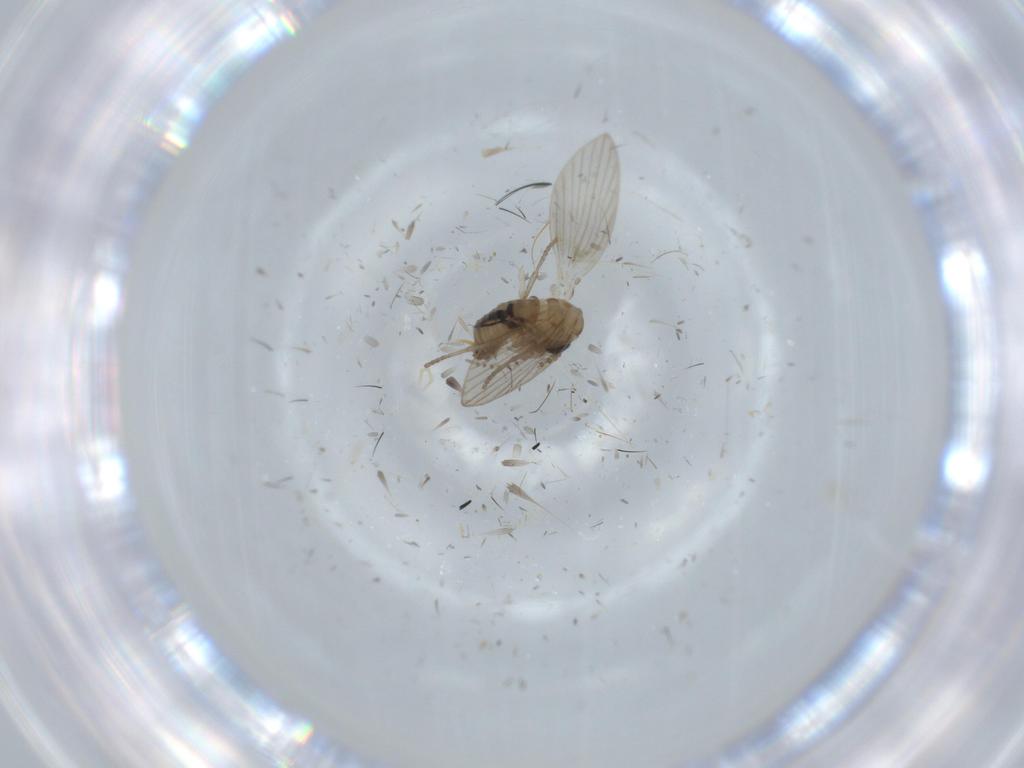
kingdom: Animalia
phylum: Arthropoda
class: Insecta
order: Diptera
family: Psychodidae
